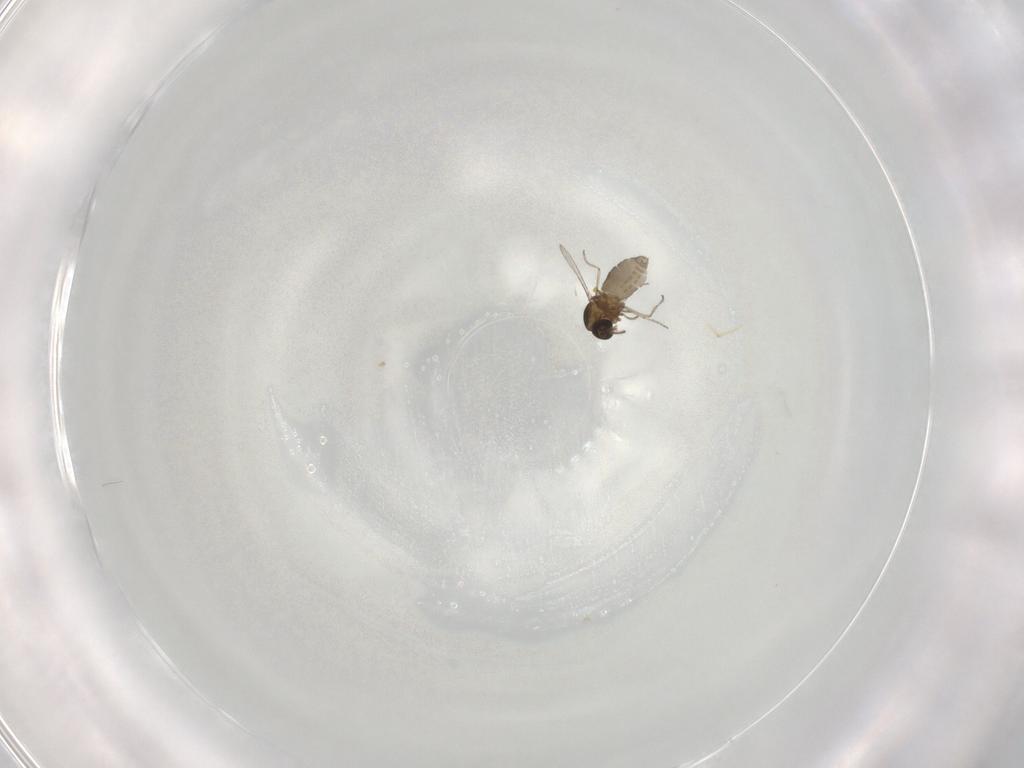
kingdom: Animalia
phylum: Arthropoda
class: Insecta
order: Diptera
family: Ceratopogonidae
